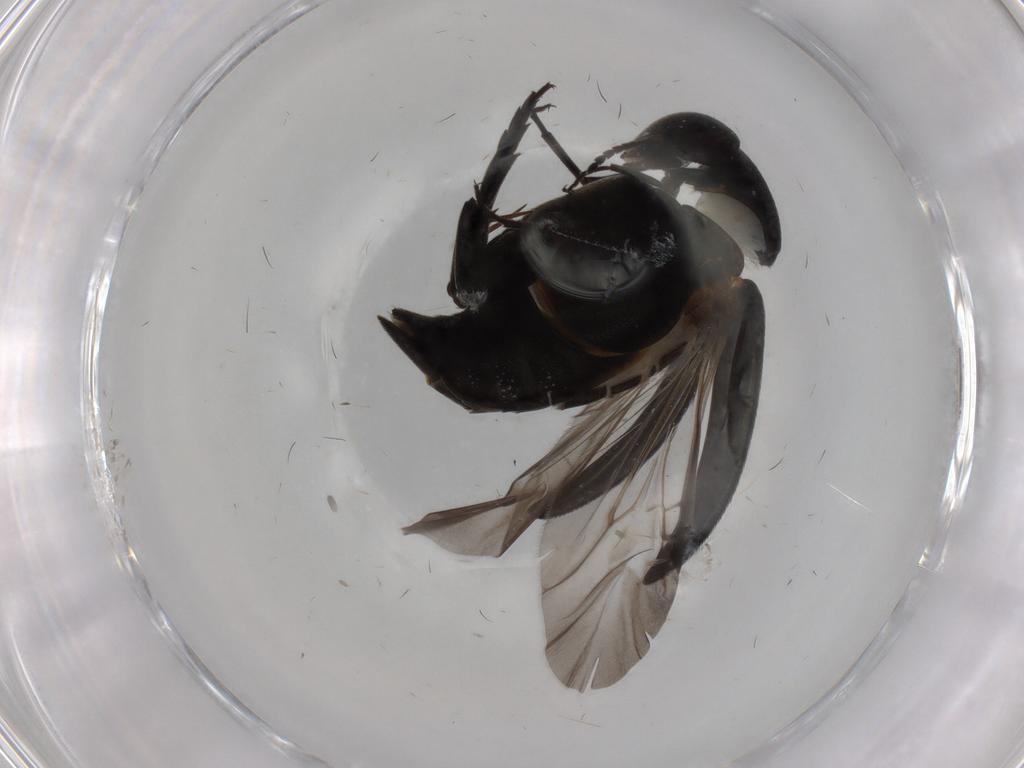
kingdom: Animalia
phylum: Arthropoda
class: Insecta
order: Coleoptera
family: Mordellidae
